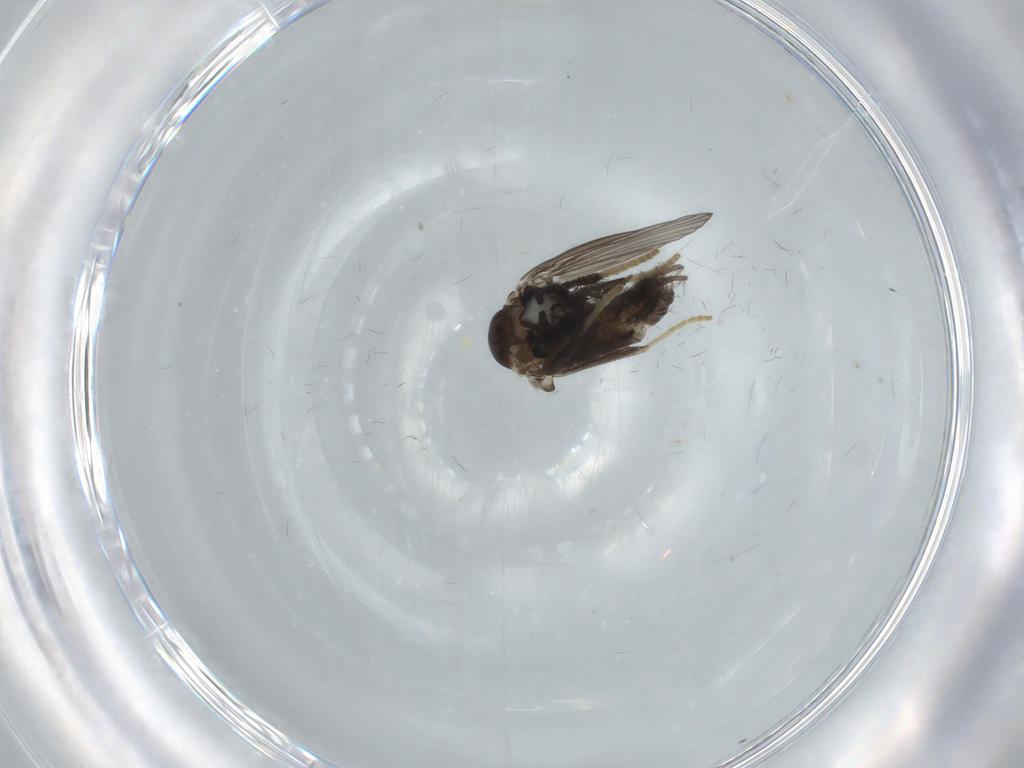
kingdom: Animalia
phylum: Arthropoda
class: Insecta
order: Diptera
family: Psychodidae
